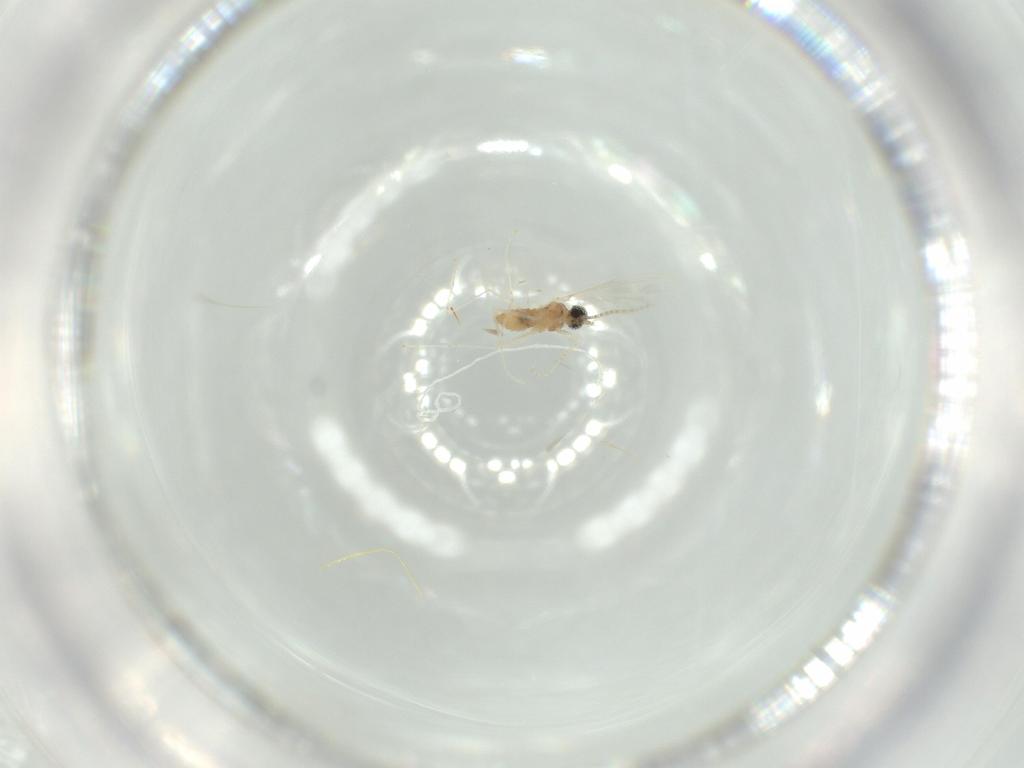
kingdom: Animalia
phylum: Arthropoda
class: Insecta
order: Diptera
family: Cecidomyiidae
